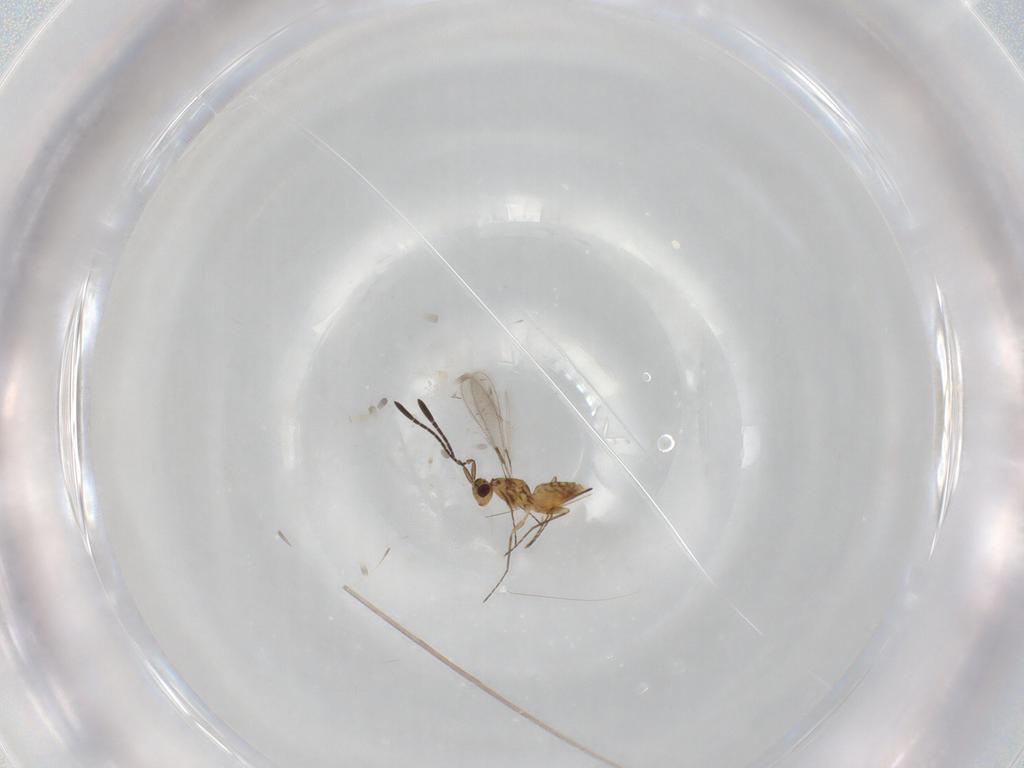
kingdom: Animalia
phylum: Arthropoda
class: Insecta
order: Hymenoptera
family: Mymaridae
